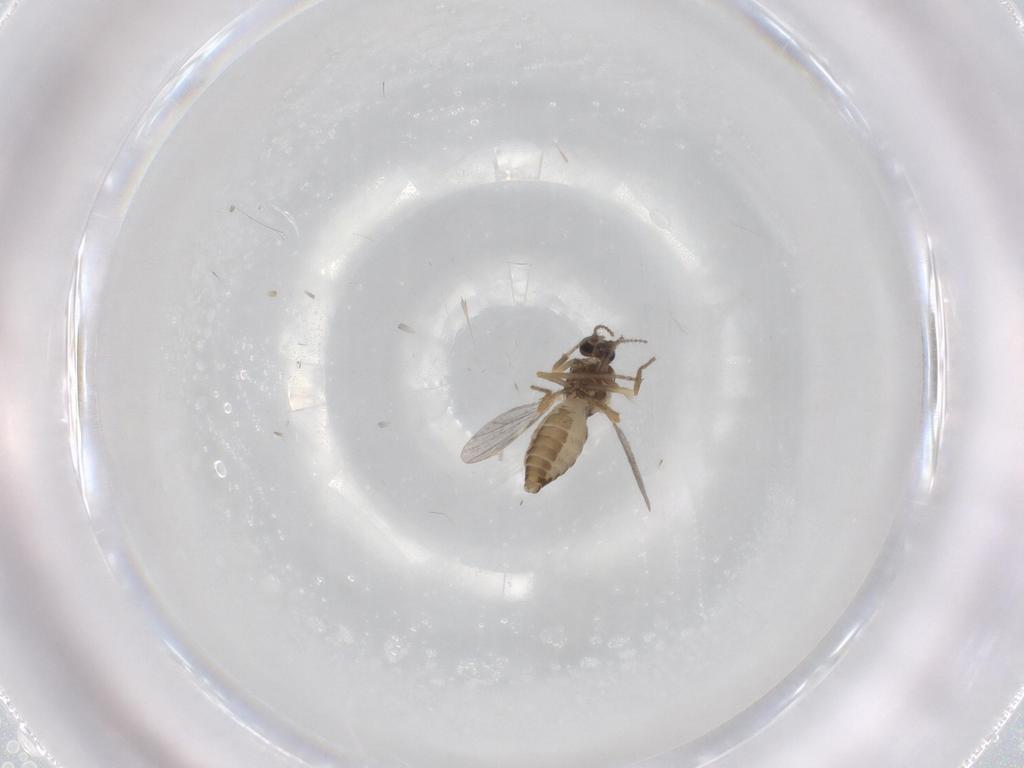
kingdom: Animalia
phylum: Arthropoda
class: Insecta
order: Diptera
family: Ceratopogonidae
